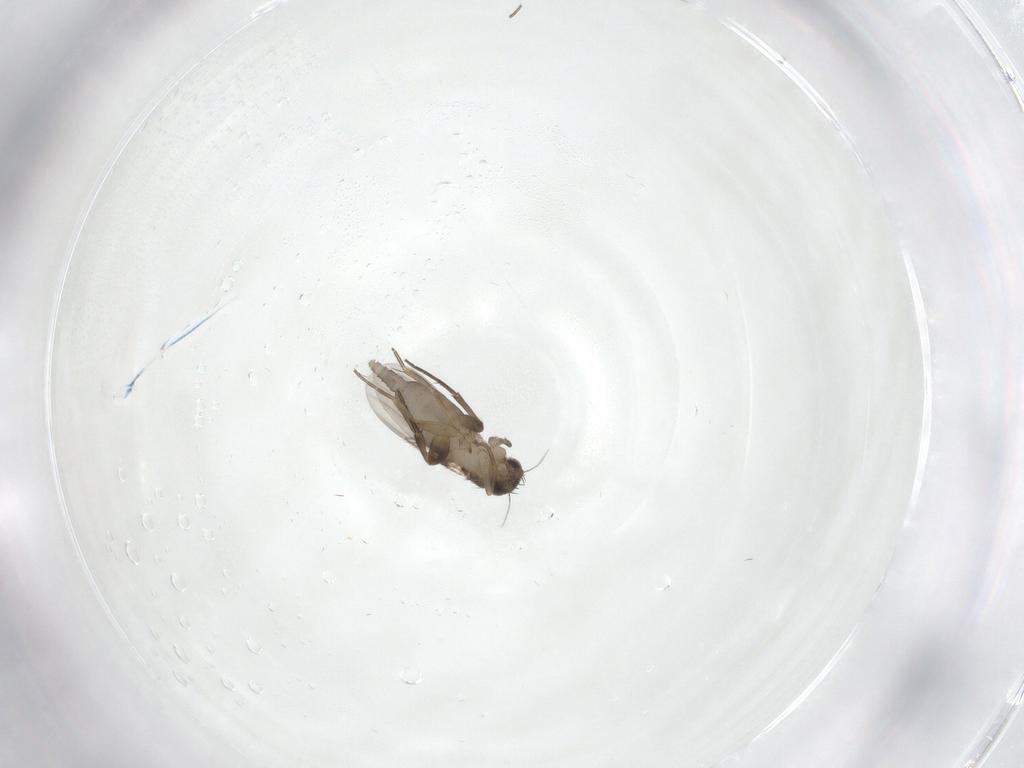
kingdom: Animalia
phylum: Arthropoda
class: Insecta
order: Diptera
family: Phoridae
